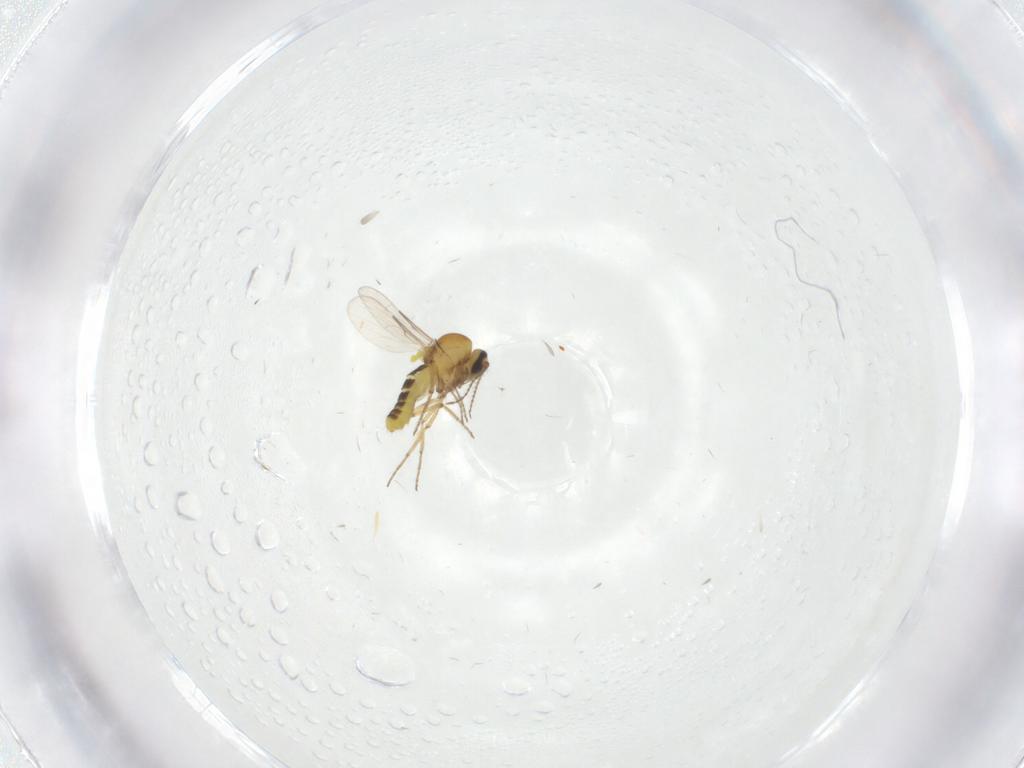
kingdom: Animalia
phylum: Arthropoda
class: Insecta
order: Diptera
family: Cecidomyiidae
